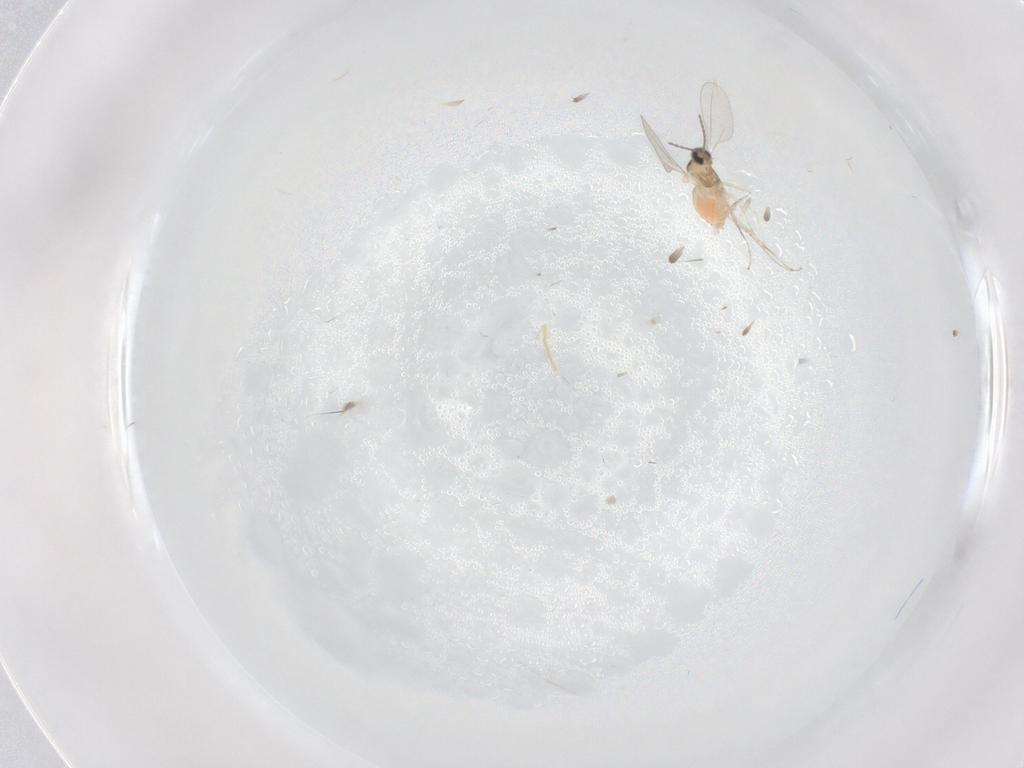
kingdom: Animalia
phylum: Arthropoda
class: Insecta
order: Diptera
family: Cecidomyiidae
